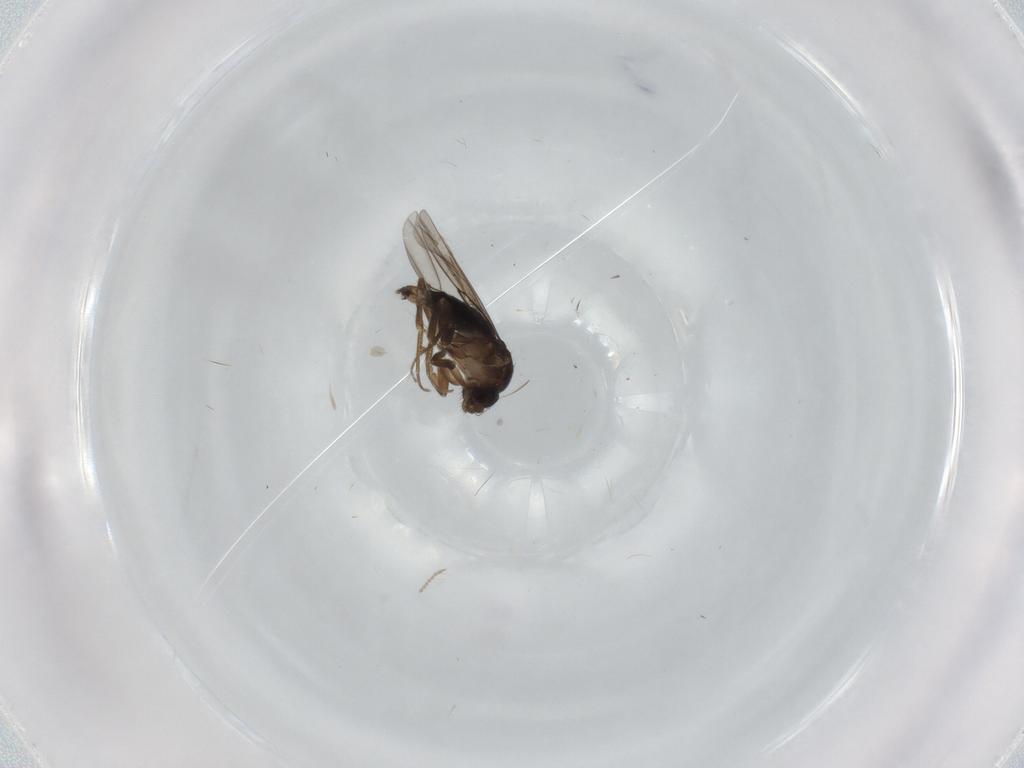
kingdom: Animalia
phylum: Arthropoda
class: Insecta
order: Diptera
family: Chironomidae
